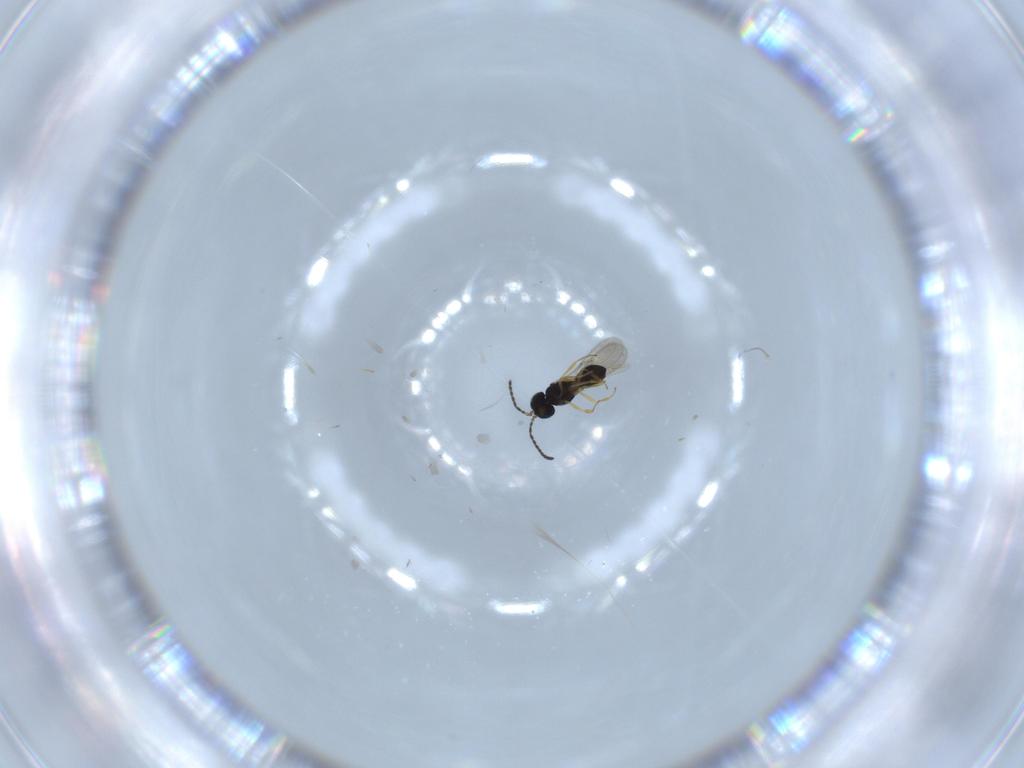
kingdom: Animalia
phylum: Arthropoda
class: Insecta
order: Hymenoptera
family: Scelionidae
